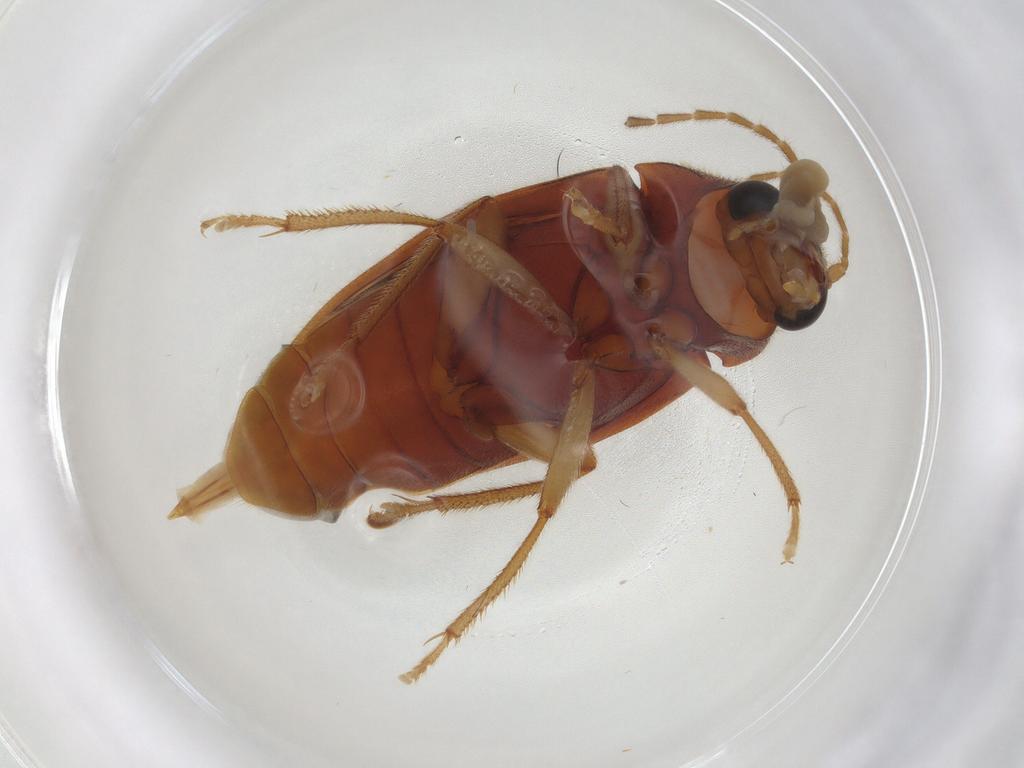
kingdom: Animalia
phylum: Arthropoda
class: Insecta
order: Coleoptera
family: Ptilodactylidae
